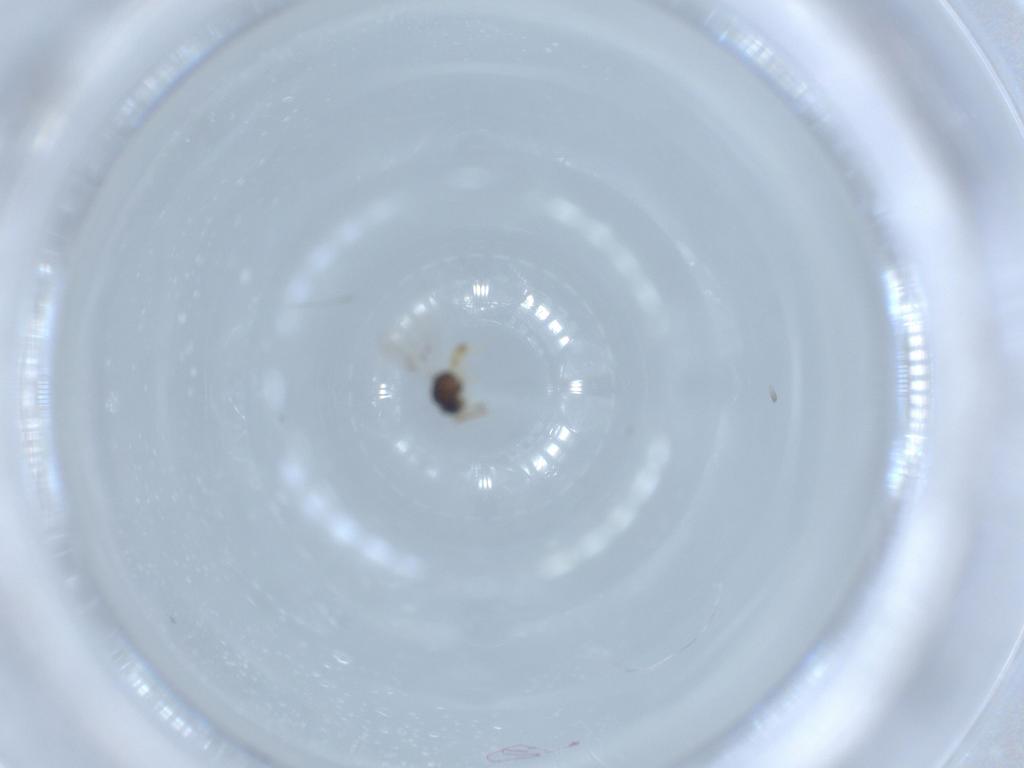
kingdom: Animalia
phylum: Arthropoda
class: Insecta
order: Hymenoptera
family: Scelionidae
